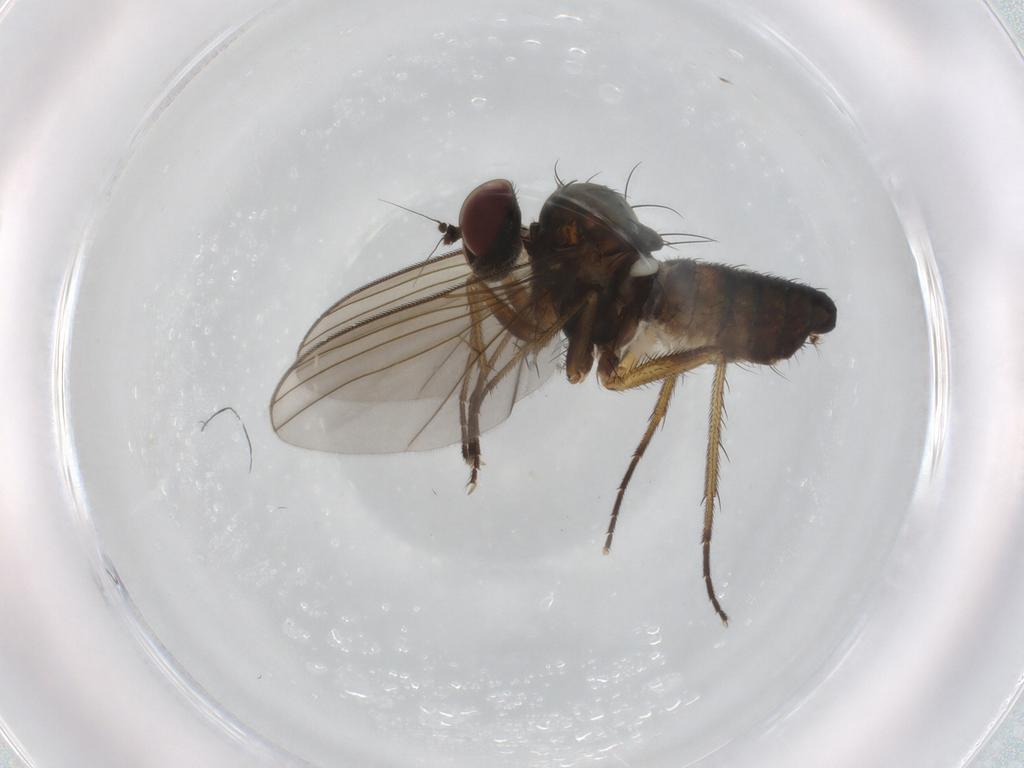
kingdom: Animalia
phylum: Arthropoda
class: Insecta
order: Diptera
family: Dolichopodidae
